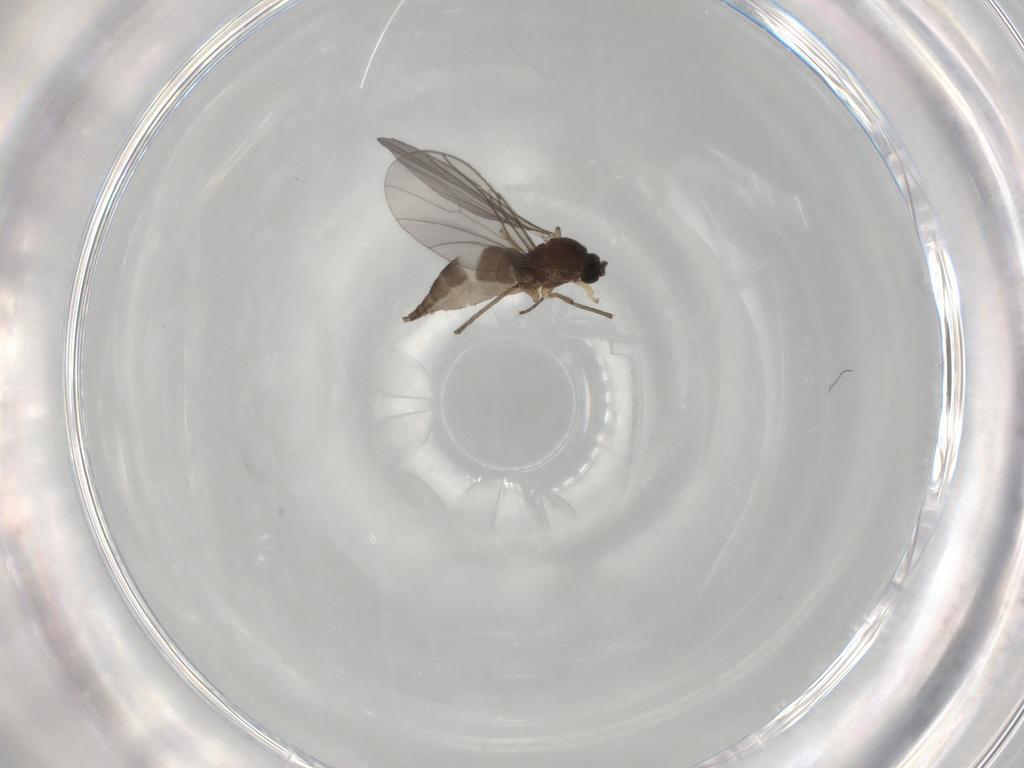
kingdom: Animalia
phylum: Arthropoda
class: Insecta
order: Diptera
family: Sciaridae
